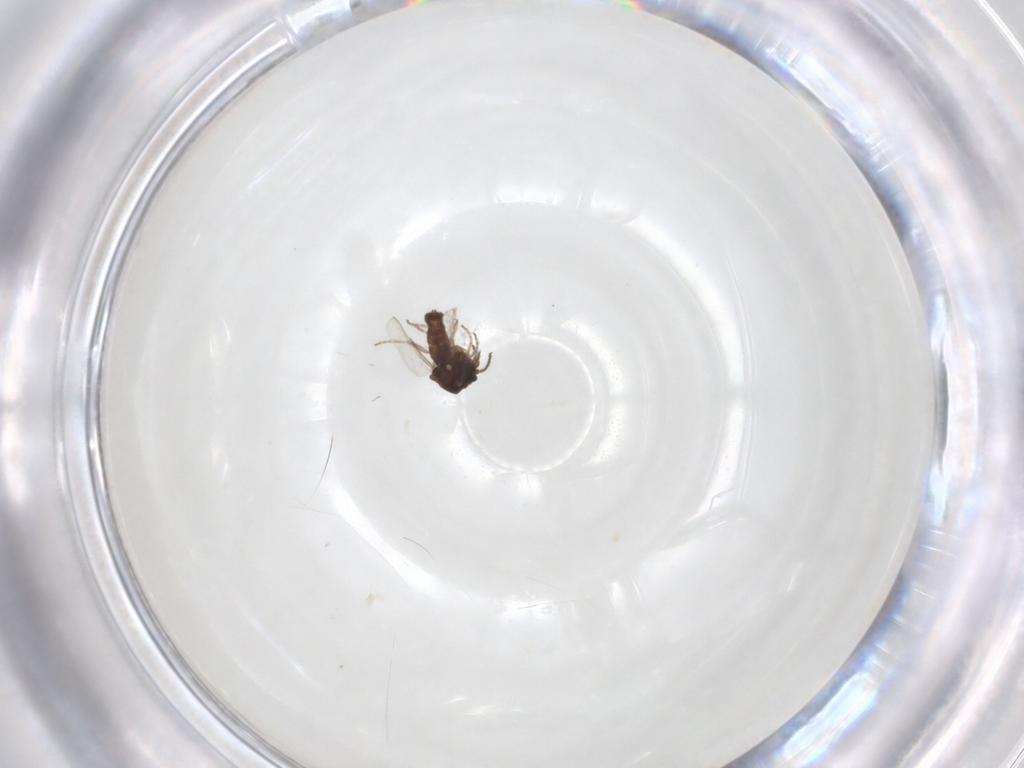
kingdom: Animalia
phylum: Arthropoda
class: Insecta
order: Diptera
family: Ceratopogonidae
